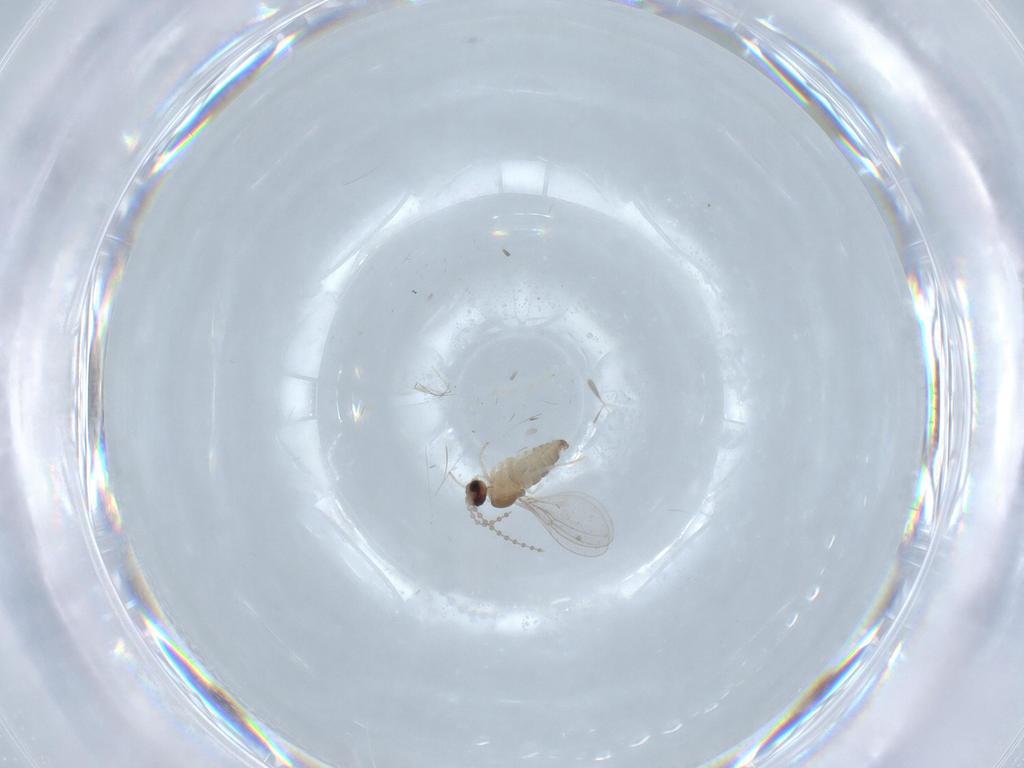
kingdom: Animalia
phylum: Arthropoda
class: Insecta
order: Diptera
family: Cecidomyiidae
